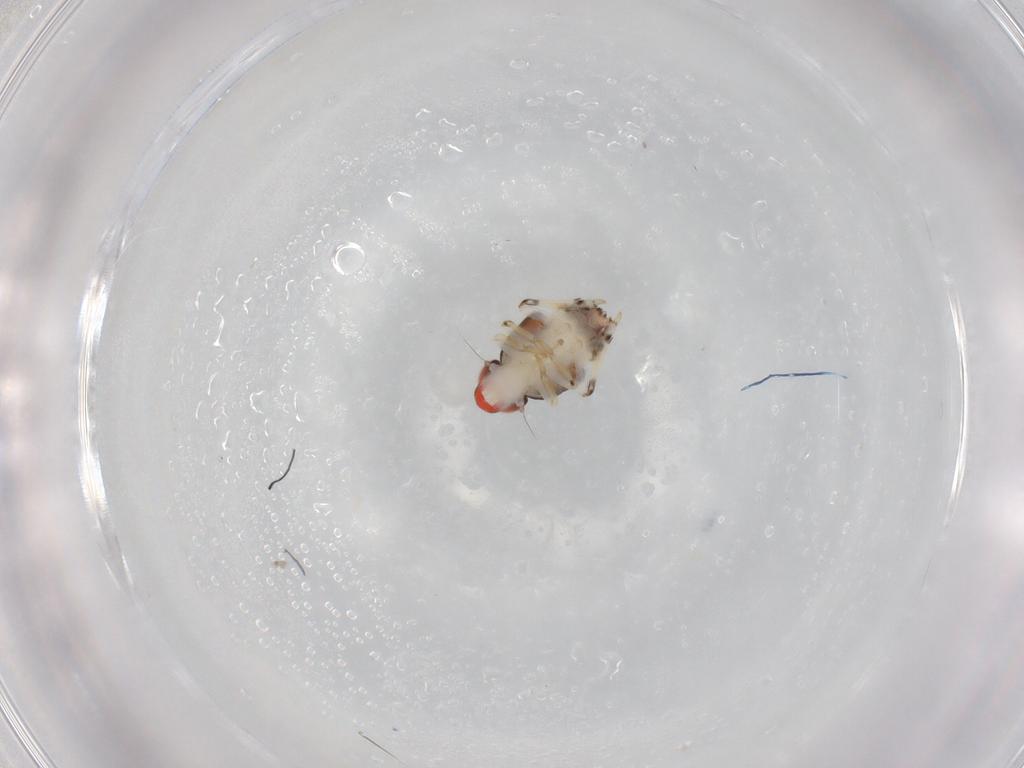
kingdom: Animalia
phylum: Arthropoda
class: Insecta
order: Hemiptera
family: Fulgoroidea_incertae_sedis
